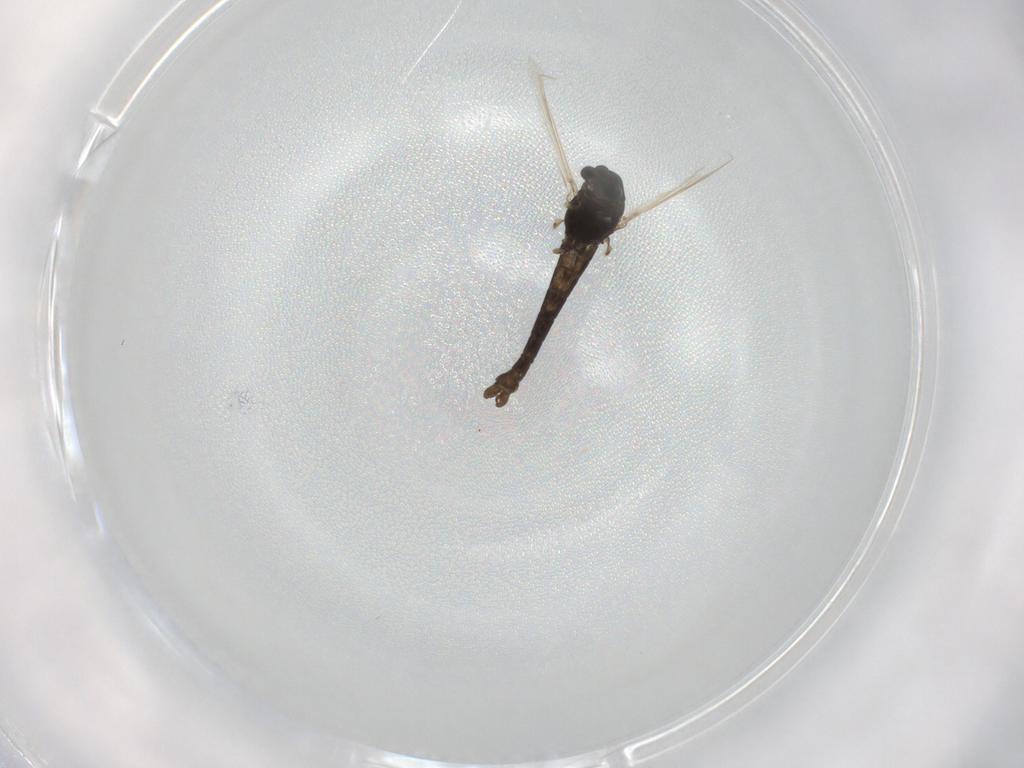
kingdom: Animalia
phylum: Arthropoda
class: Insecta
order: Diptera
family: Chironomidae
